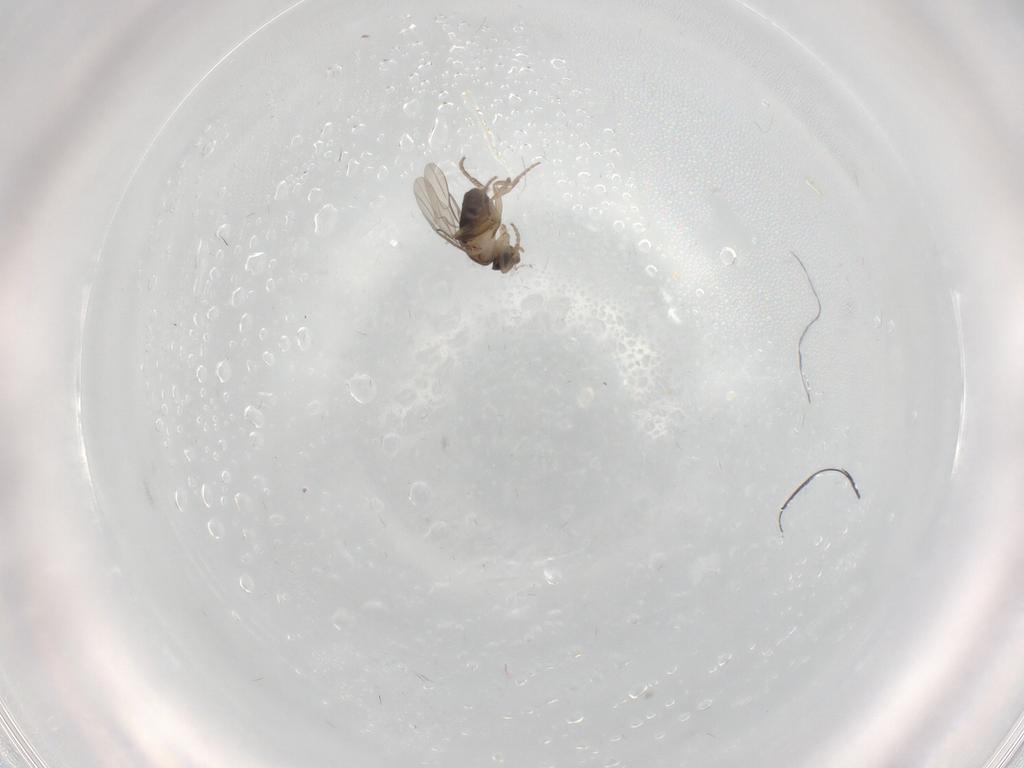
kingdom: Animalia
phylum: Arthropoda
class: Insecta
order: Diptera
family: Phoridae
